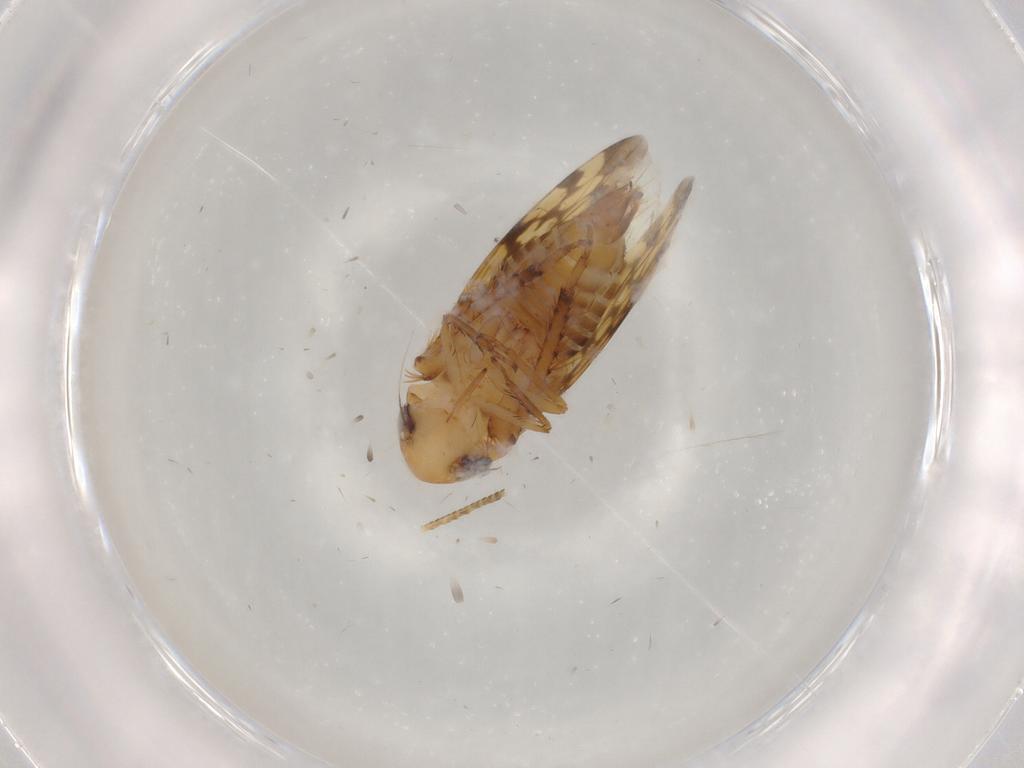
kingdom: Animalia
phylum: Arthropoda
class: Insecta
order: Hemiptera
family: Cicadellidae
